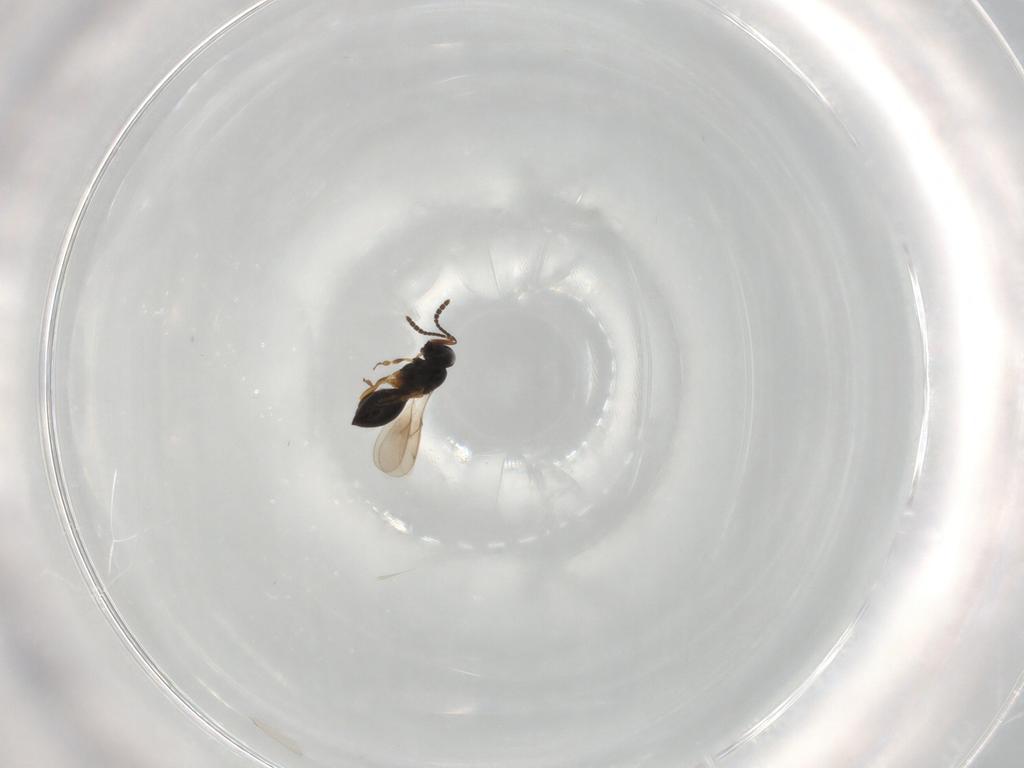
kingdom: Animalia
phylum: Arthropoda
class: Insecta
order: Hymenoptera
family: Scelionidae
